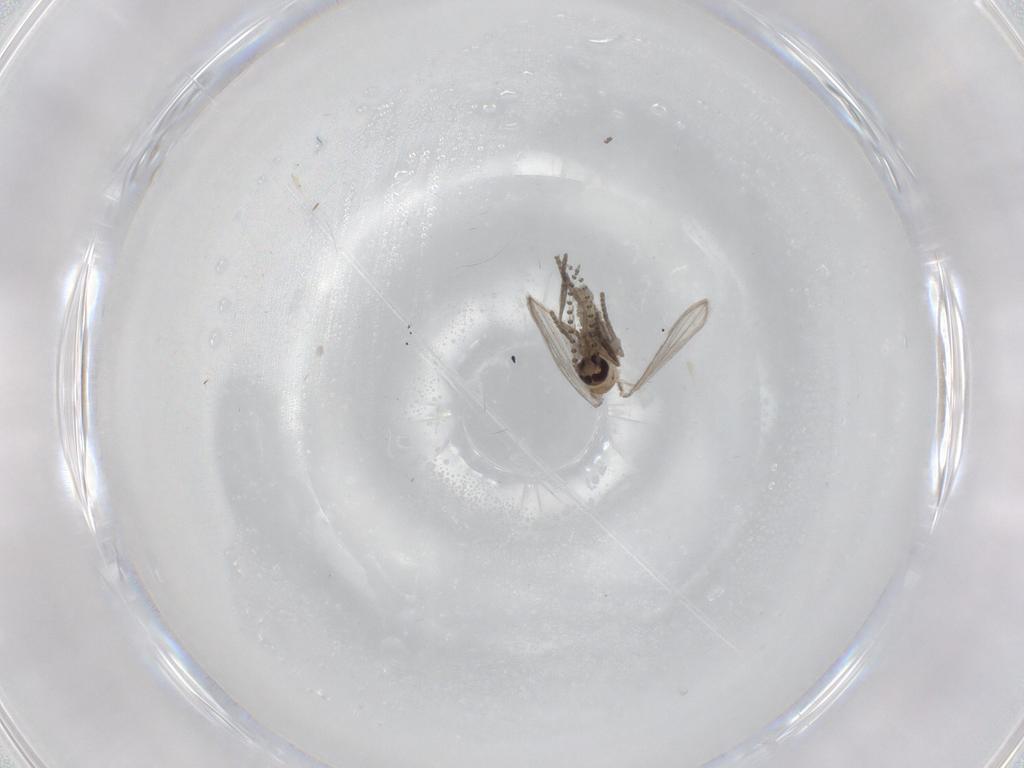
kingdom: Animalia
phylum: Arthropoda
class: Insecta
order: Diptera
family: Psychodidae
